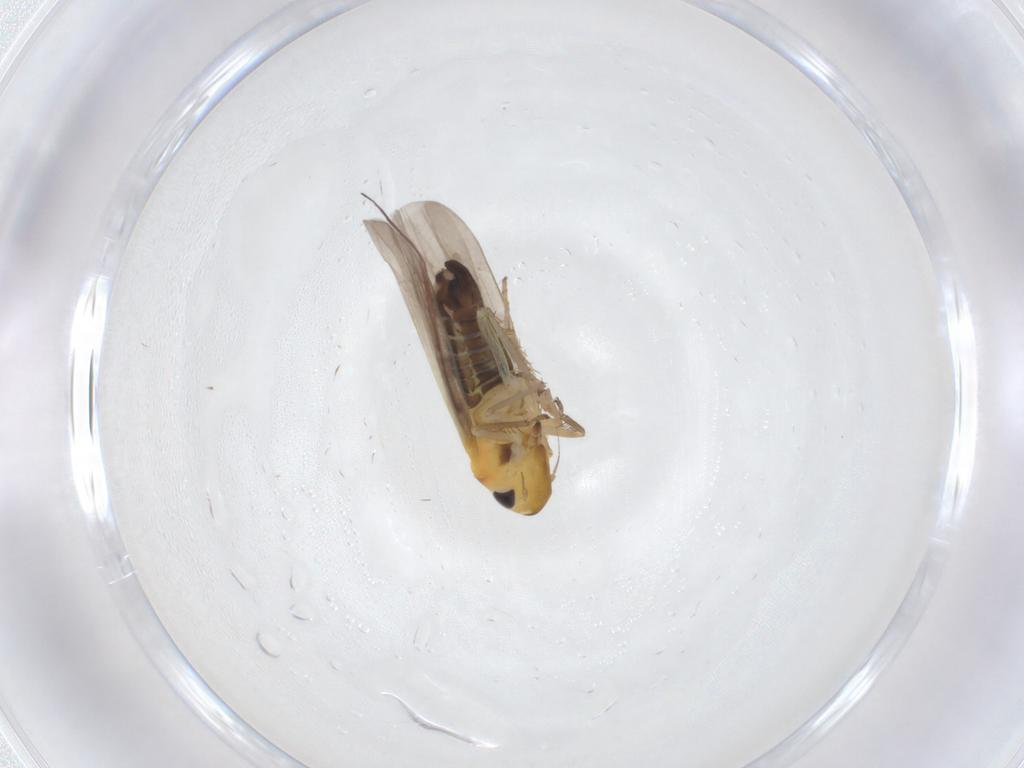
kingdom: Animalia
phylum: Arthropoda
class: Insecta
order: Hemiptera
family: Cicadellidae
